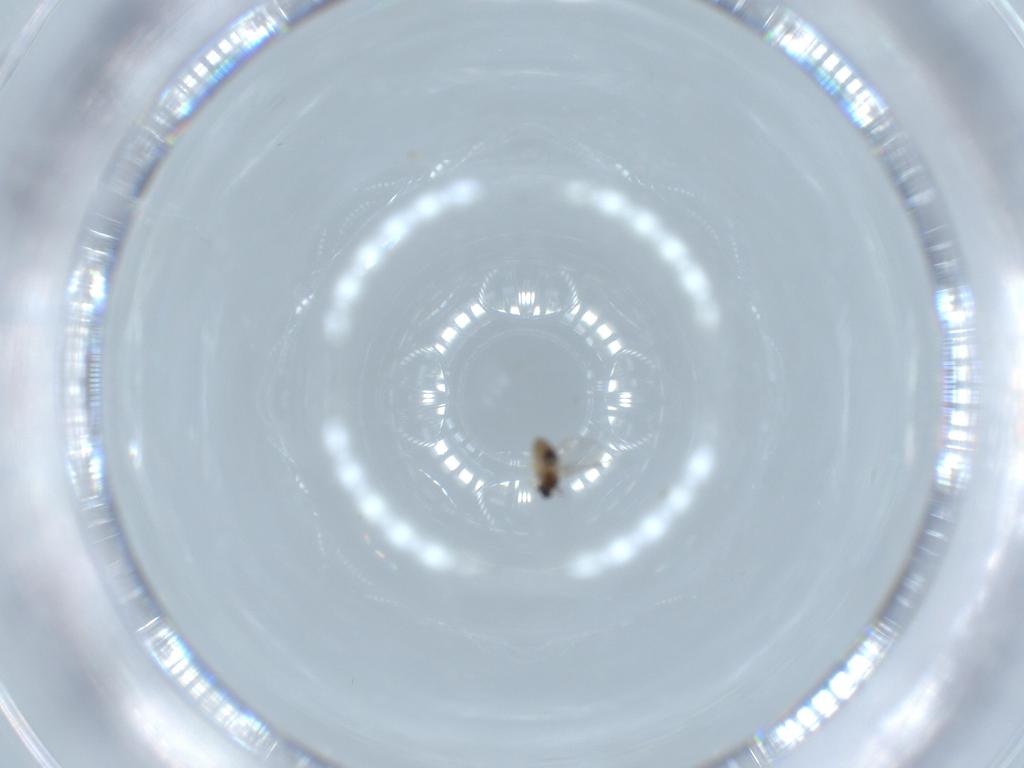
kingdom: Animalia
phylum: Arthropoda
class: Insecta
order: Diptera
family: Cecidomyiidae
